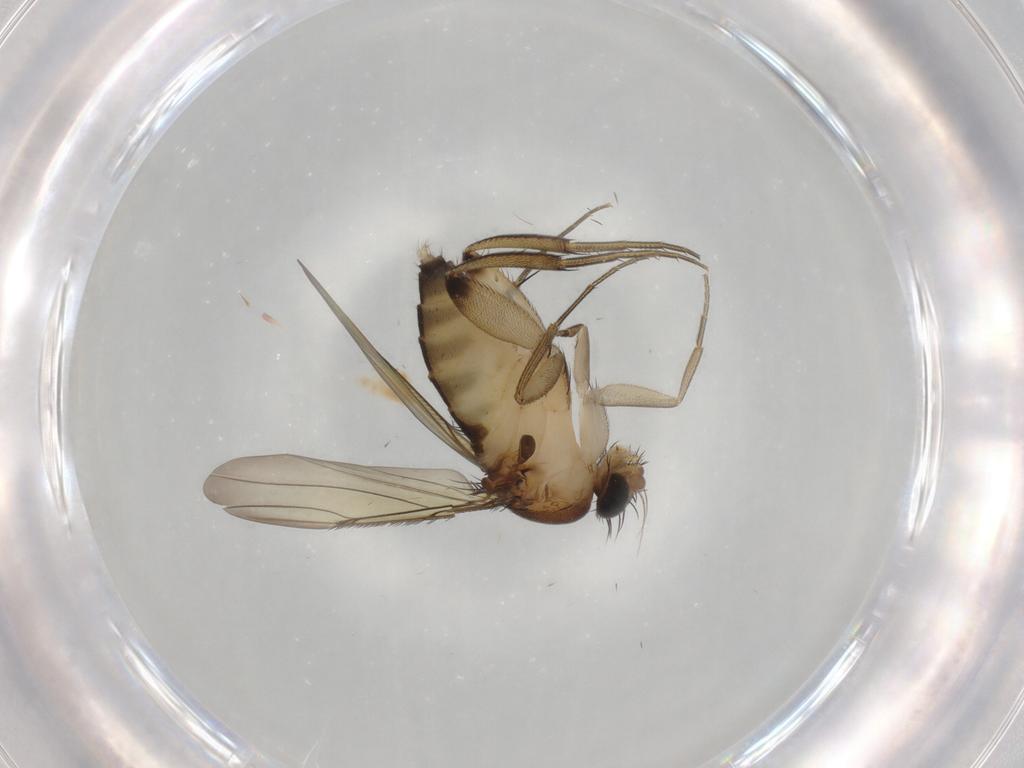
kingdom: Animalia
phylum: Arthropoda
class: Insecta
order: Diptera
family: Phoridae
